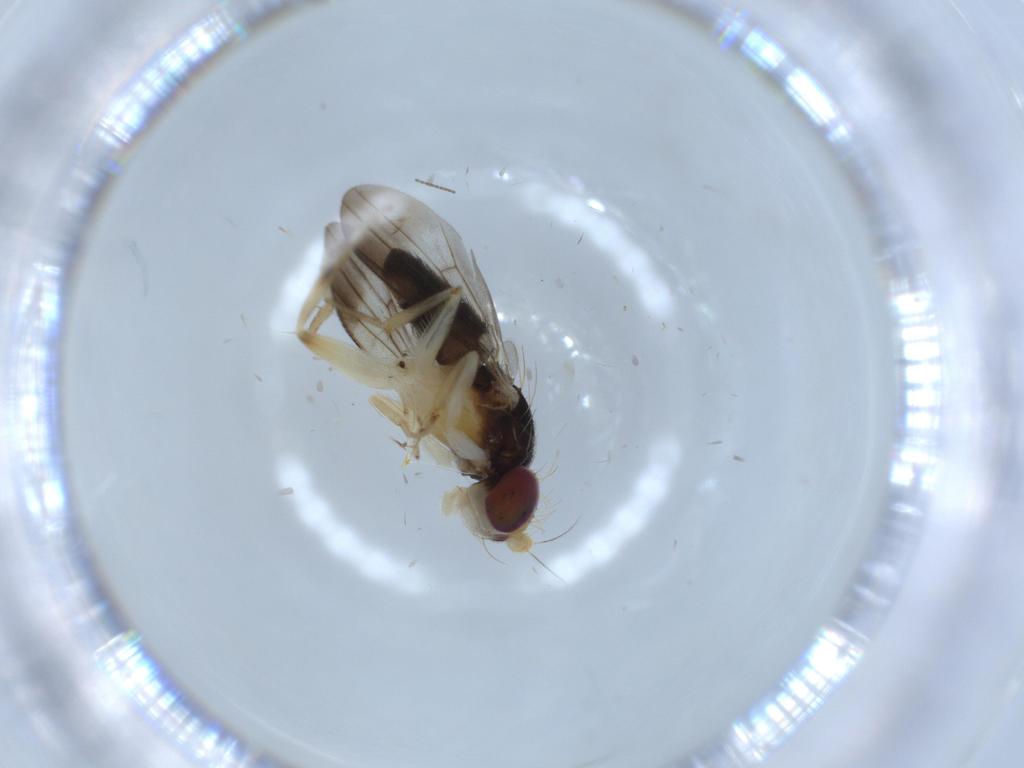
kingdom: Animalia
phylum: Arthropoda
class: Insecta
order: Diptera
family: Clusiidae
